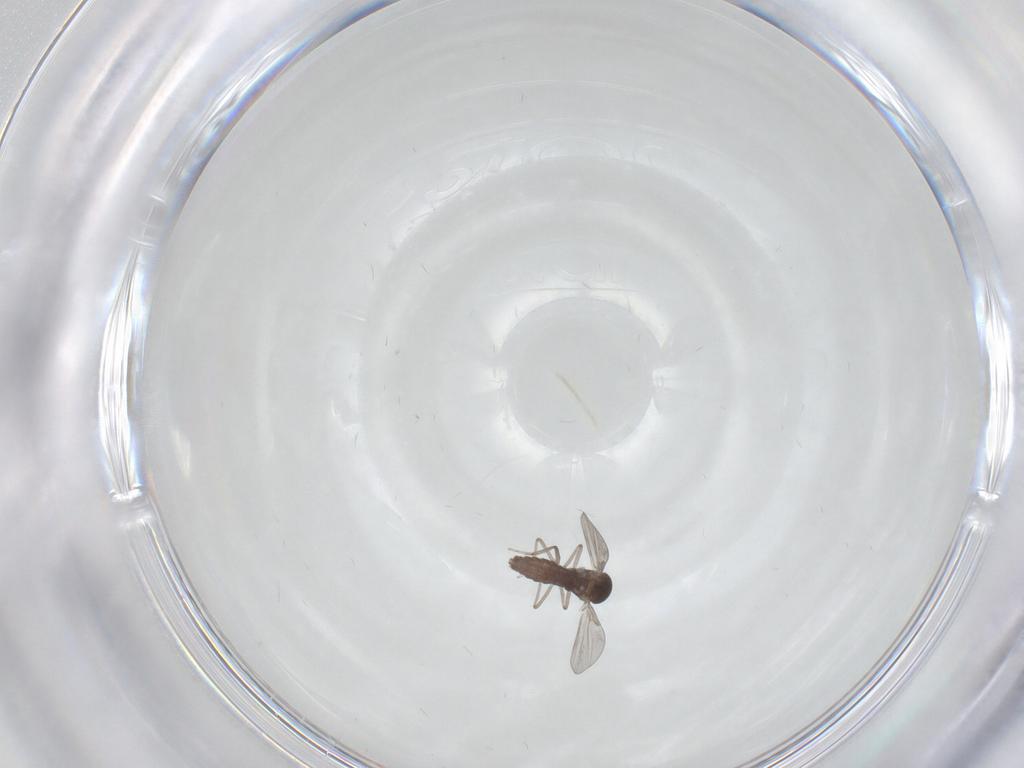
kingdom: Animalia
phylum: Arthropoda
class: Insecta
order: Diptera
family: Ceratopogonidae
